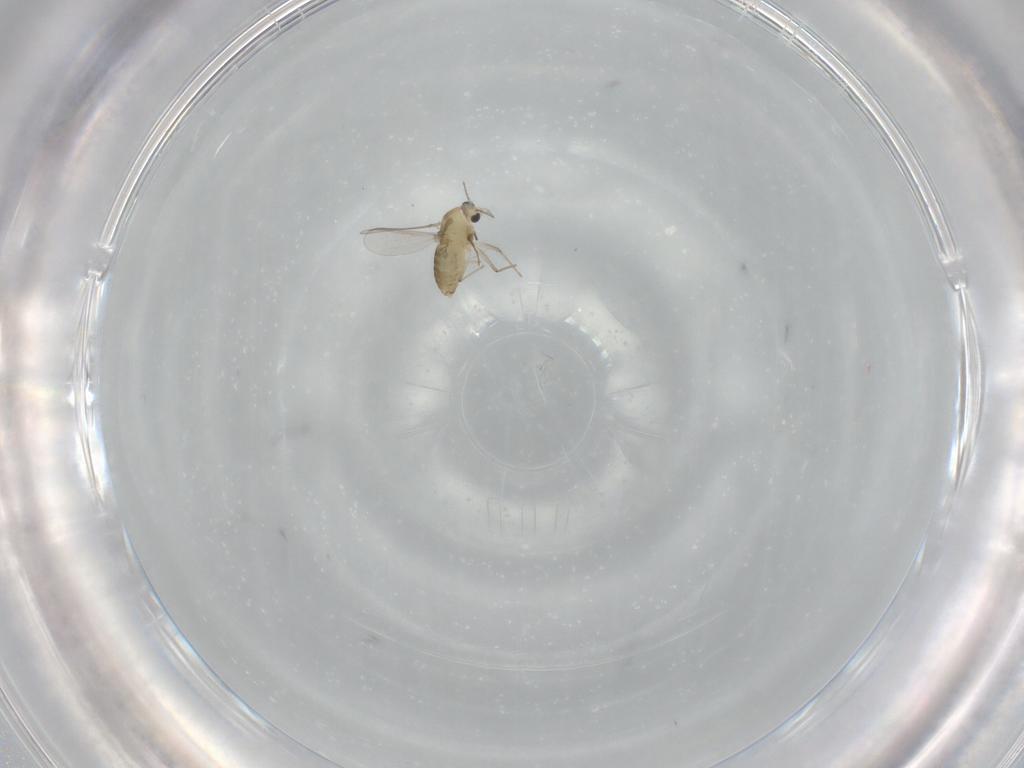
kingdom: Animalia
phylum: Arthropoda
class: Insecta
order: Diptera
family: Chironomidae
